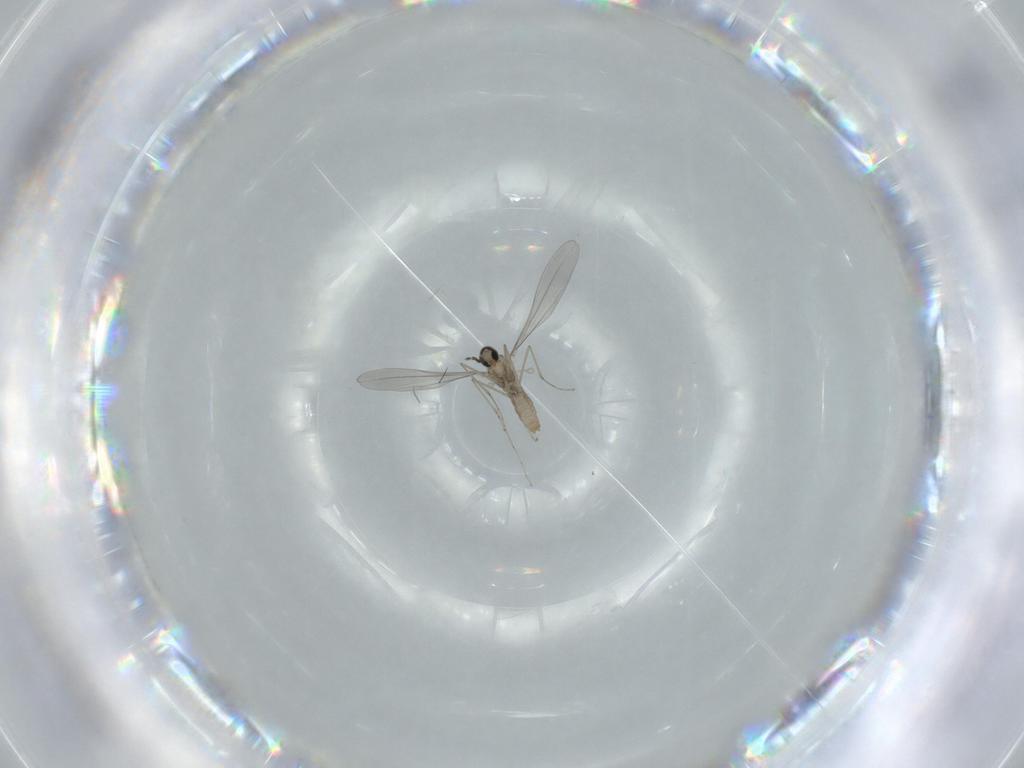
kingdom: Animalia
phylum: Arthropoda
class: Insecta
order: Diptera
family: Cecidomyiidae
